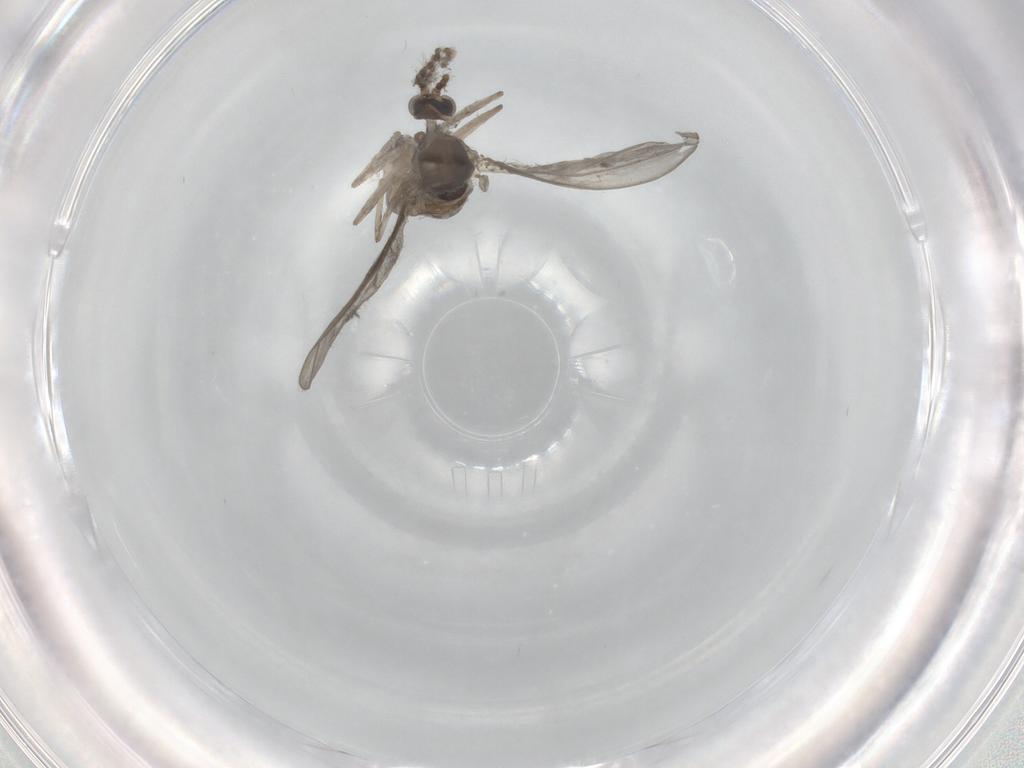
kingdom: Animalia
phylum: Arthropoda
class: Insecta
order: Diptera
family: Cecidomyiidae
